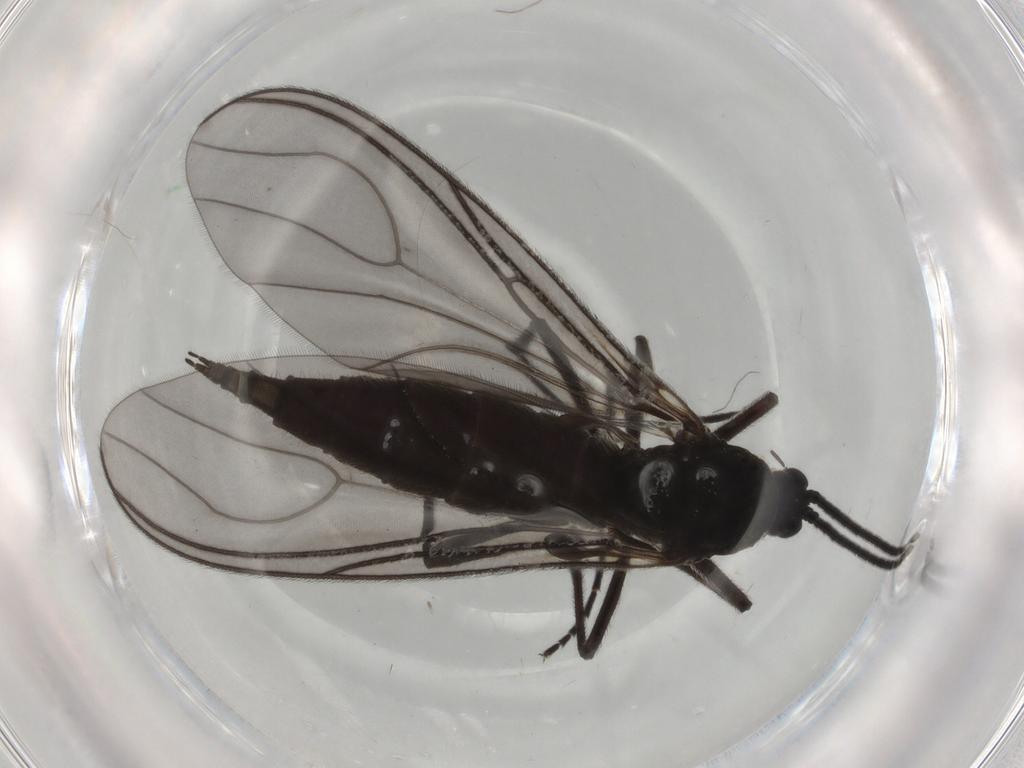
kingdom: Animalia
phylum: Arthropoda
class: Insecta
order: Diptera
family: Sciaridae
